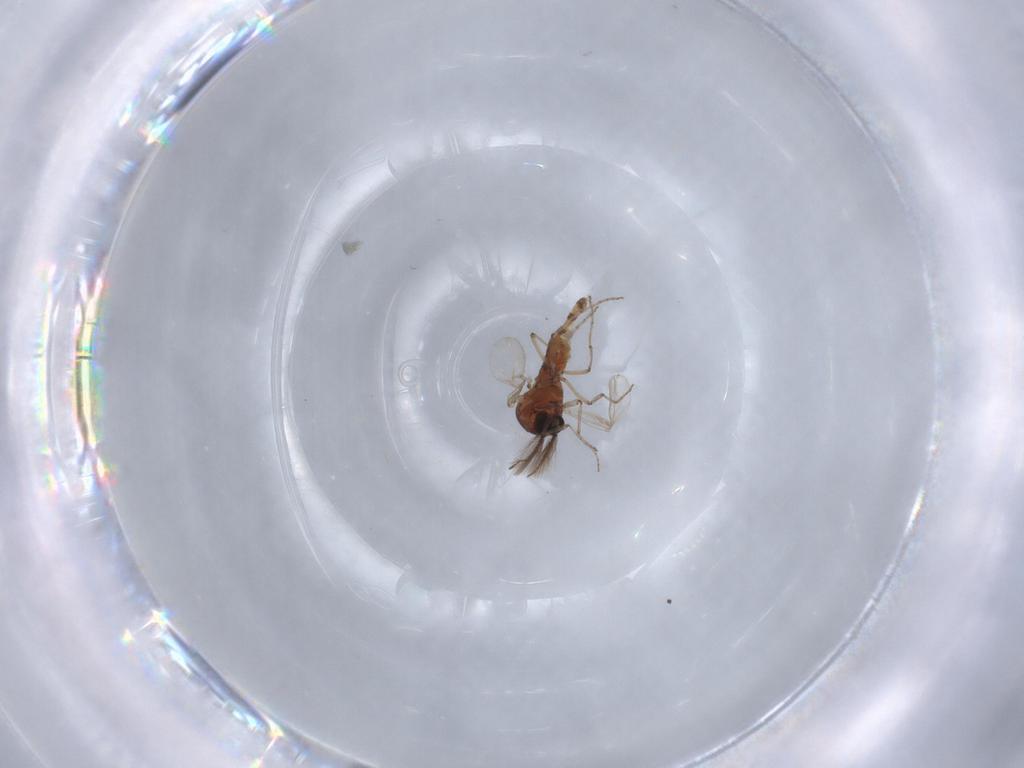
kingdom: Animalia
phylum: Arthropoda
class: Insecta
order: Diptera
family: Ceratopogonidae
